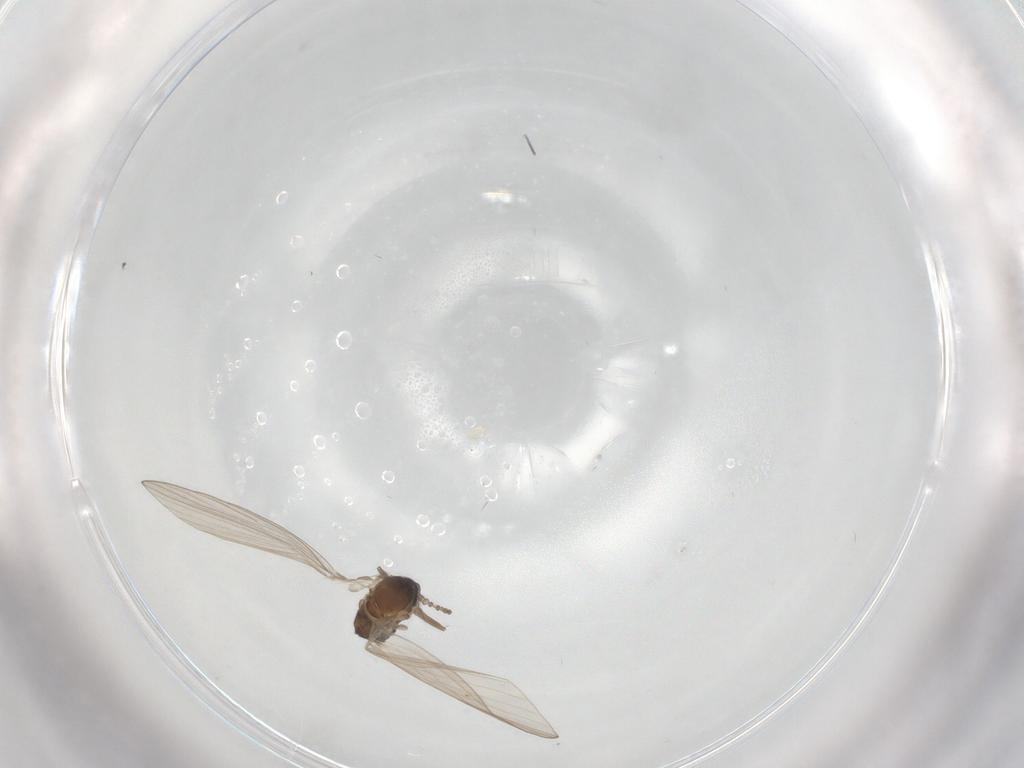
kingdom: Animalia
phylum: Arthropoda
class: Insecta
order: Diptera
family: Psychodidae
